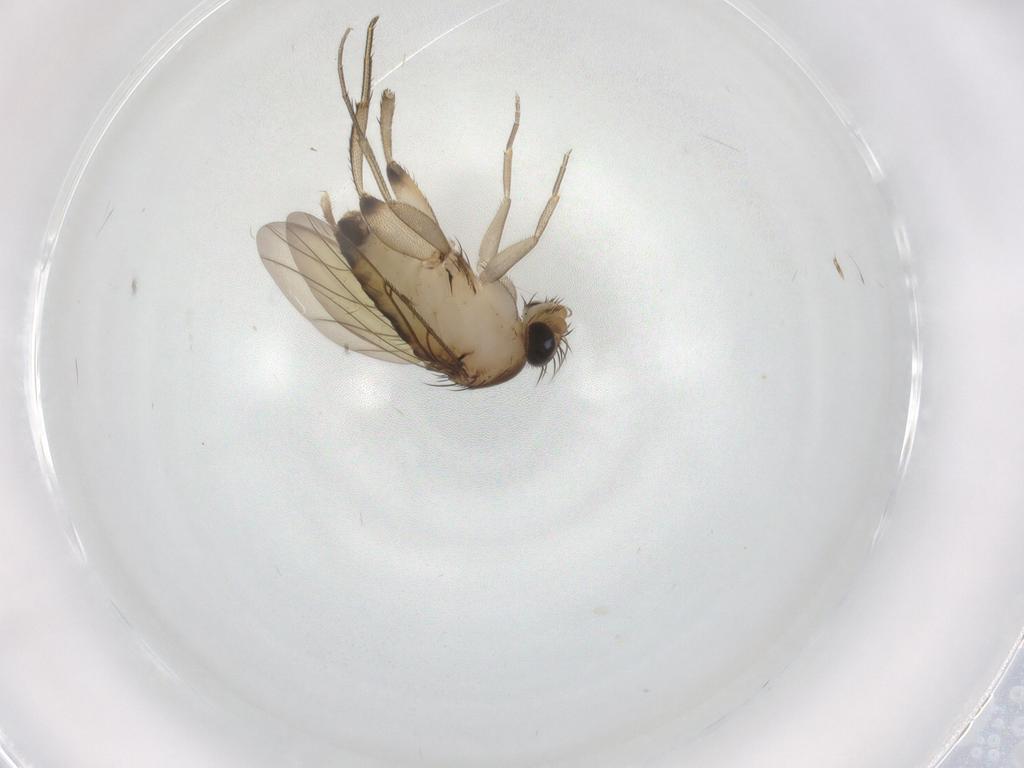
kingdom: Animalia
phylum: Arthropoda
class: Insecta
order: Diptera
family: Phoridae
